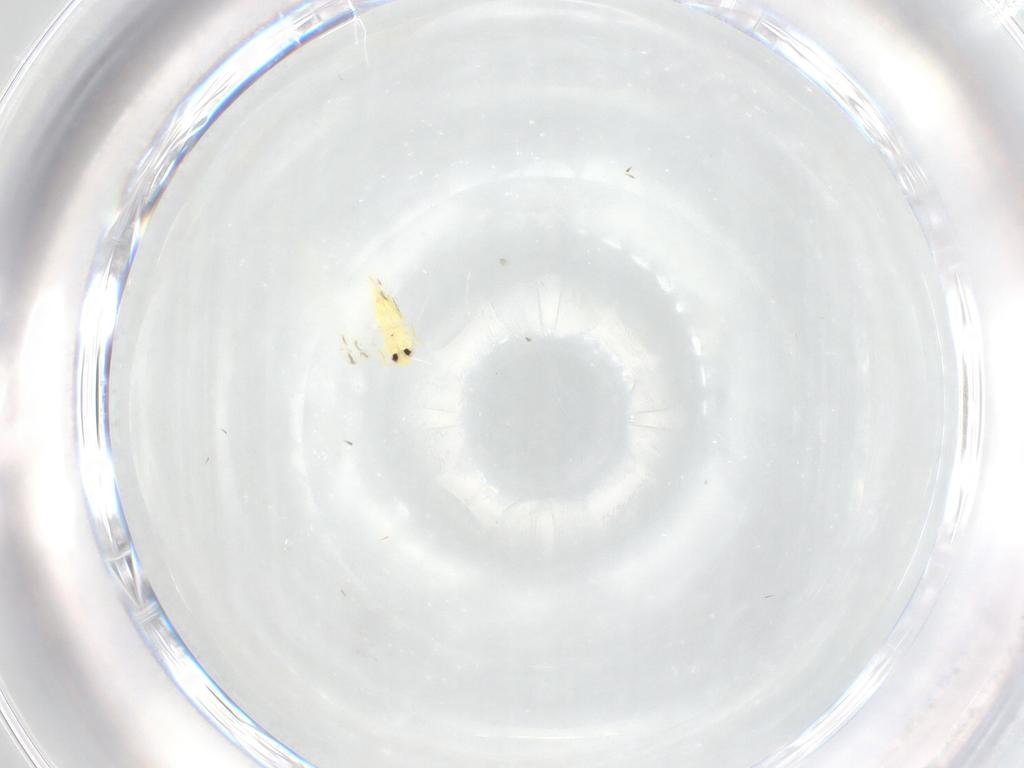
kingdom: Animalia
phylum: Arthropoda
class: Insecta
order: Hemiptera
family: Aleyrodidae
